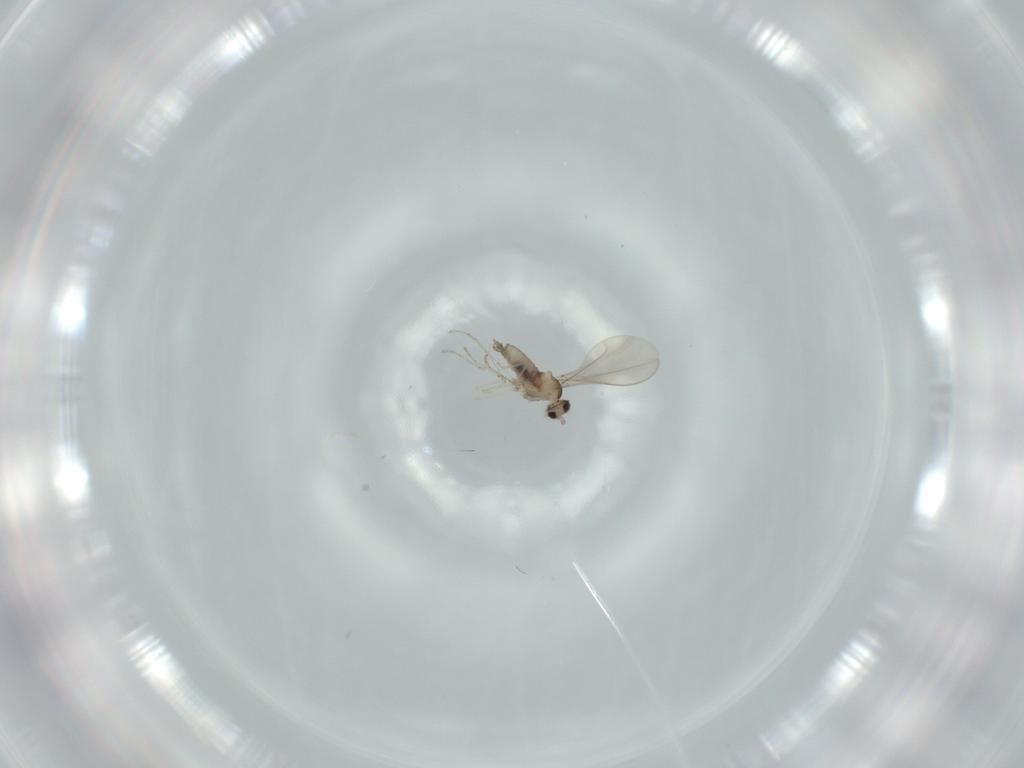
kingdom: Animalia
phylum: Arthropoda
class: Insecta
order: Diptera
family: Cecidomyiidae
